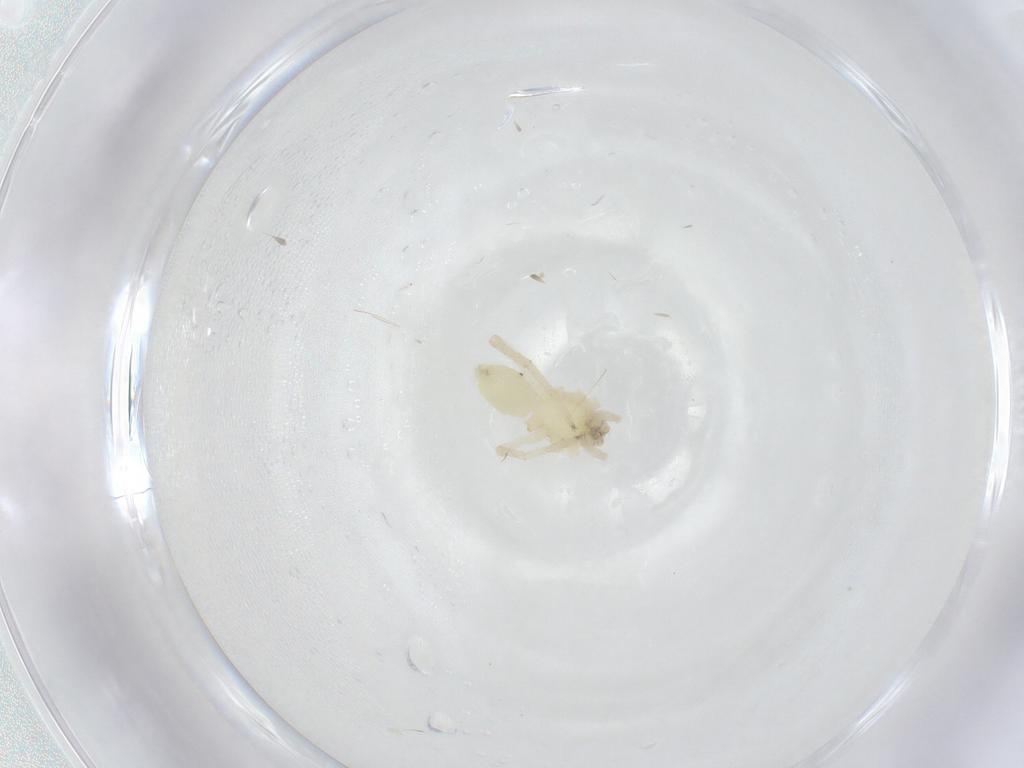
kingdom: Animalia
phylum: Arthropoda
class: Arachnida
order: Araneae
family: Anyphaenidae
